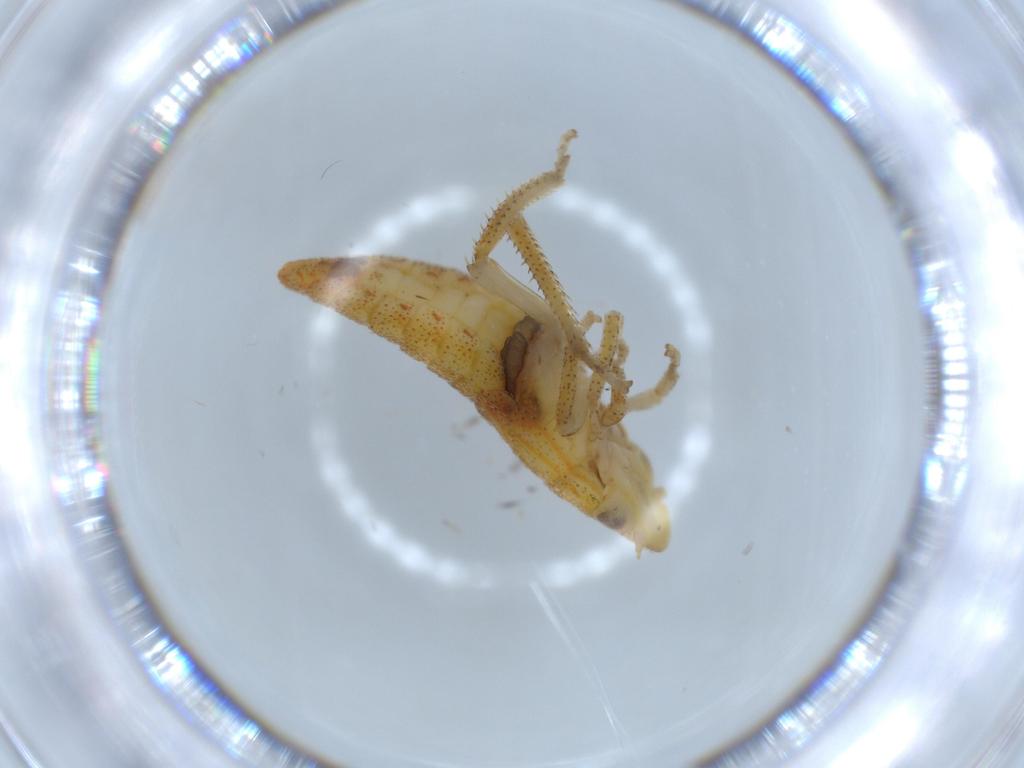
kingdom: Animalia
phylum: Arthropoda
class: Insecta
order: Hemiptera
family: Cicadellidae
